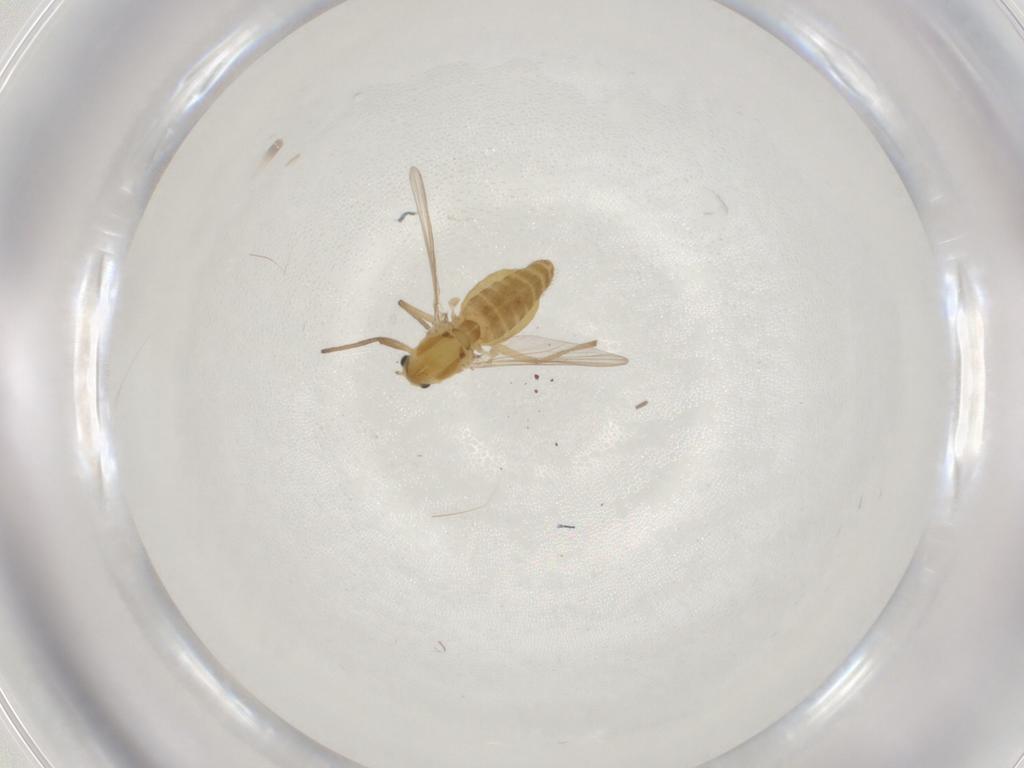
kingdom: Animalia
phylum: Arthropoda
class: Insecta
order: Diptera
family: Chironomidae
